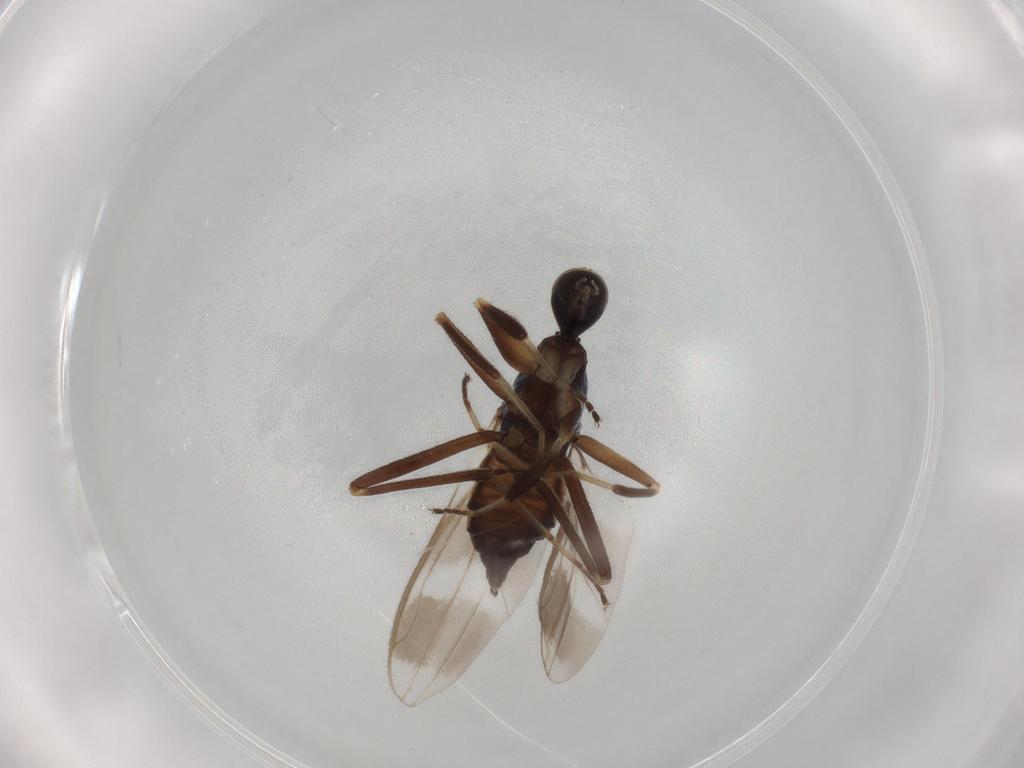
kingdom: Animalia
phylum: Arthropoda
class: Insecta
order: Diptera
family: Hybotidae
